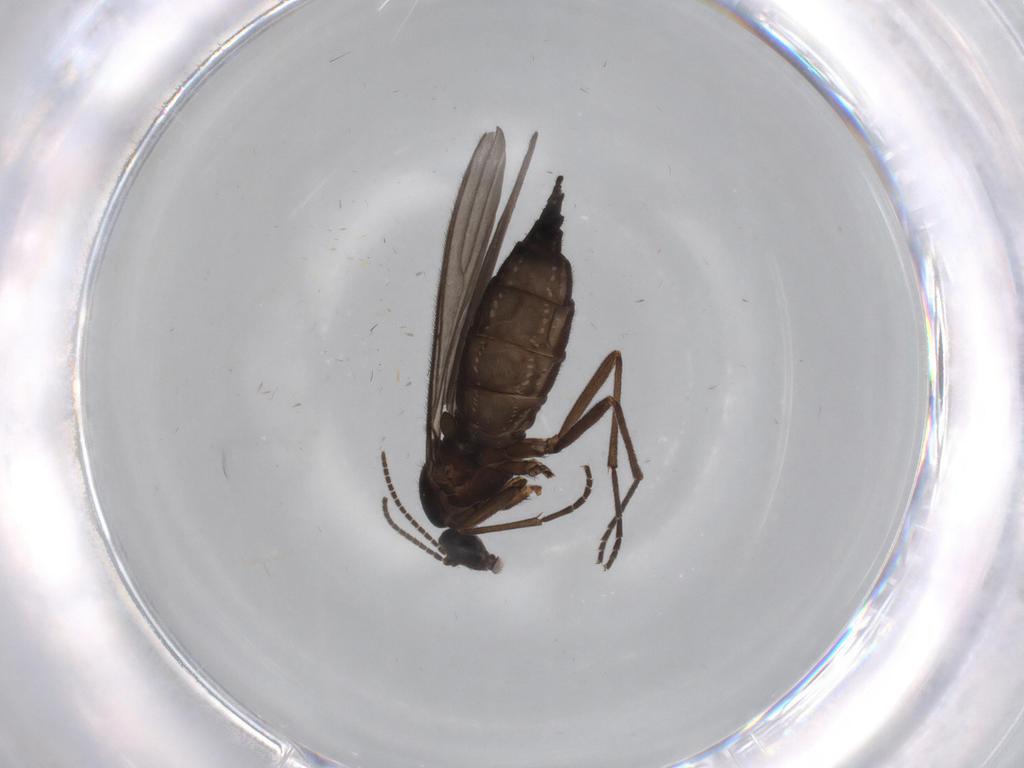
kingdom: Animalia
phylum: Arthropoda
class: Insecta
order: Diptera
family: Sciaridae
